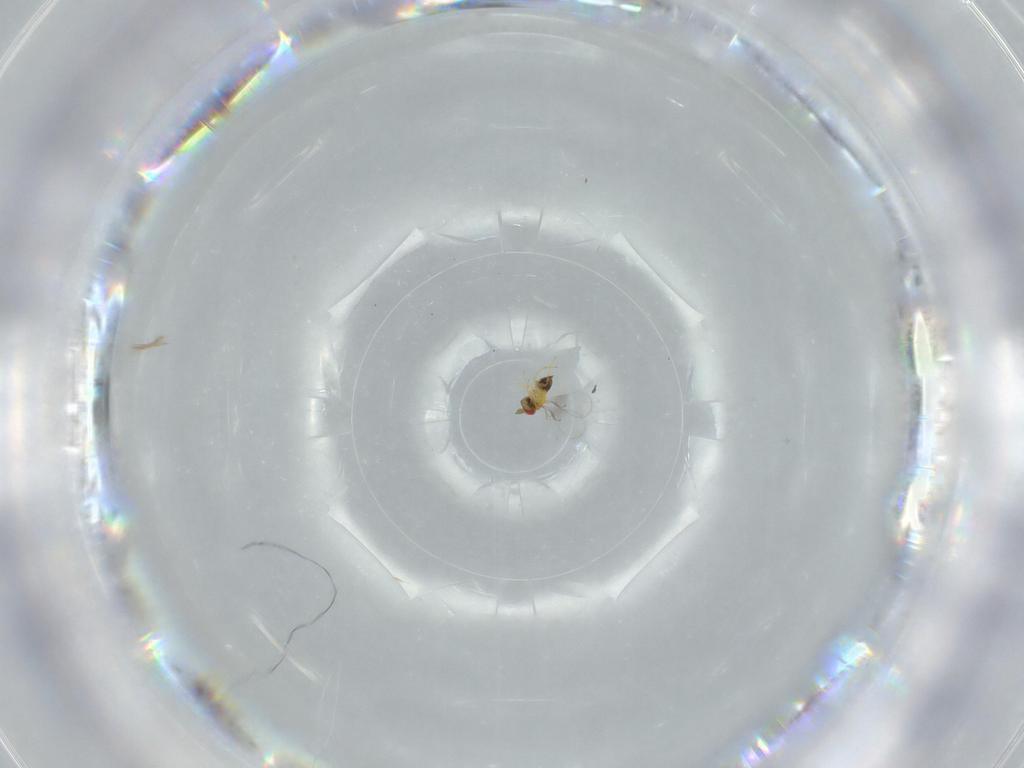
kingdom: Animalia
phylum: Arthropoda
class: Insecta
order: Hymenoptera
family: Trichogrammatidae
